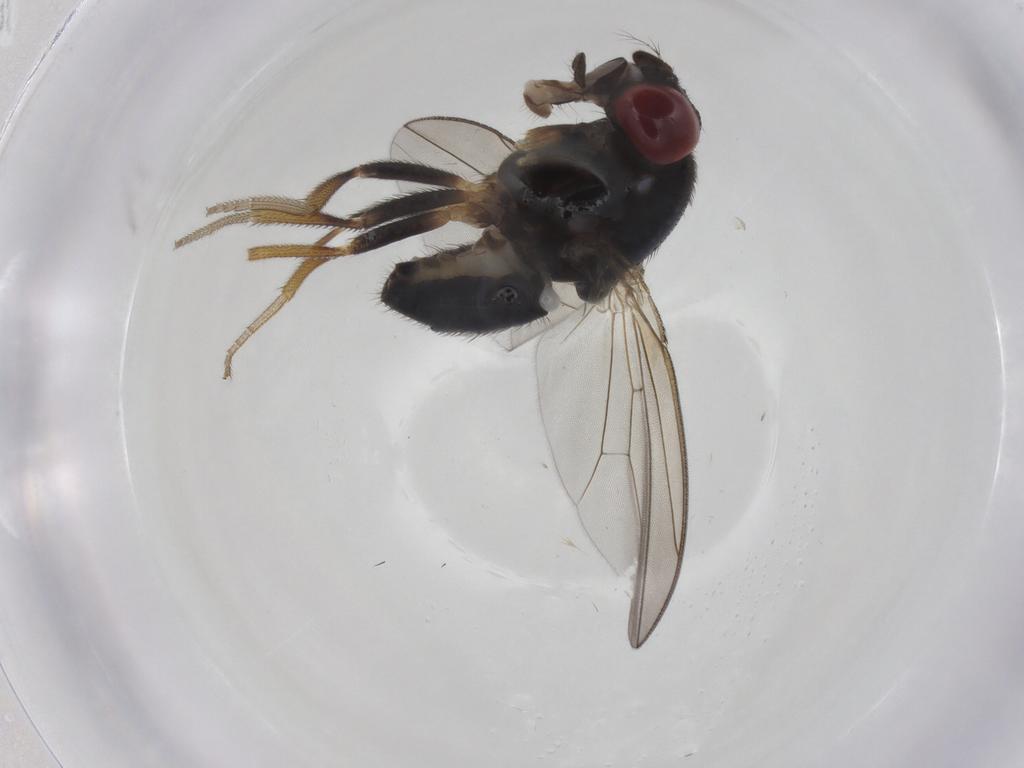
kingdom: Animalia
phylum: Arthropoda
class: Insecta
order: Diptera
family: Drosophilidae
